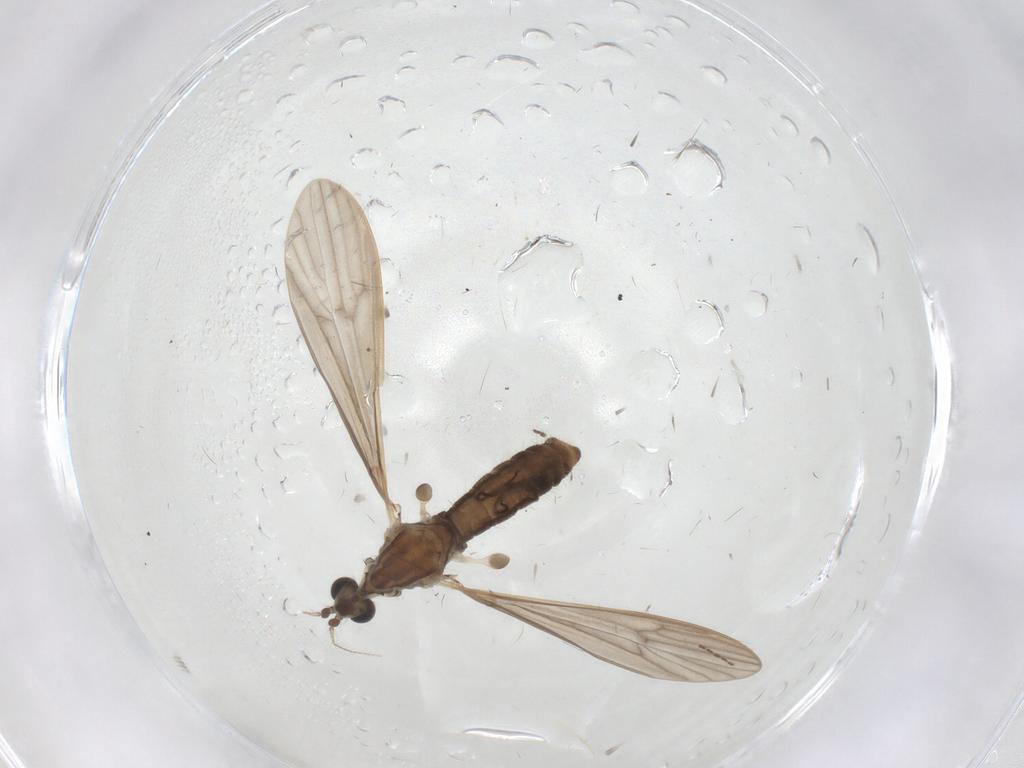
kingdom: Animalia
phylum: Arthropoda
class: Insecta
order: Diptera
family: Limoniidae
